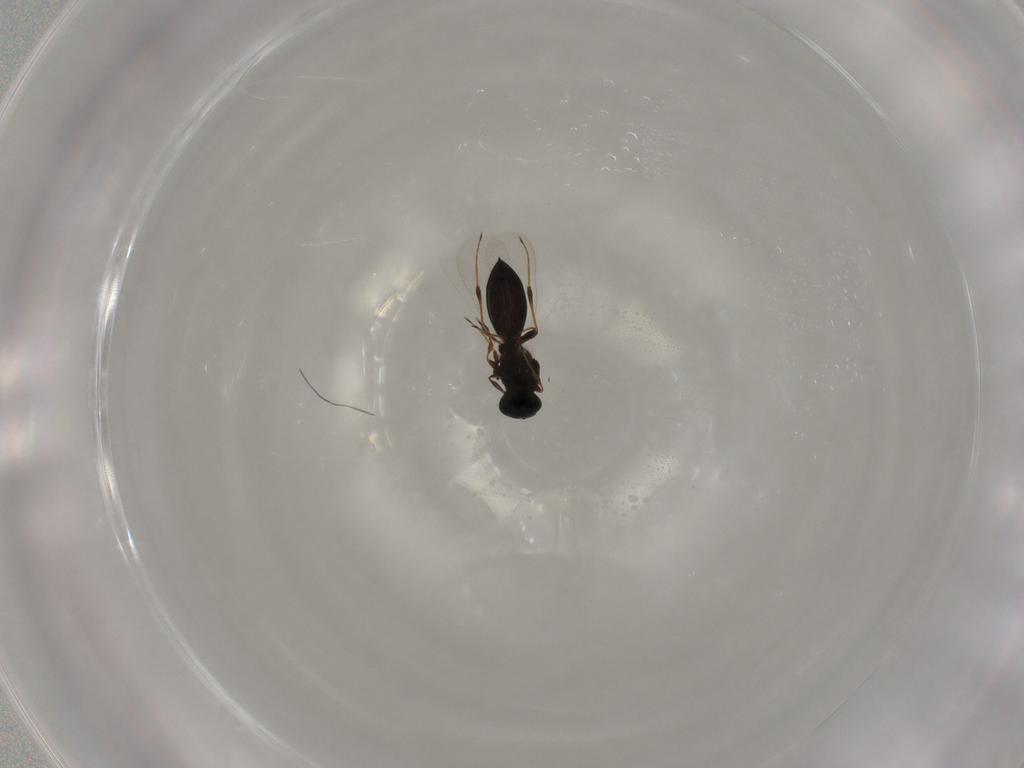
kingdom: Animalia
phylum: Arthropoda
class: Insecta
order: Hymenoptera
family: Platygastridae
